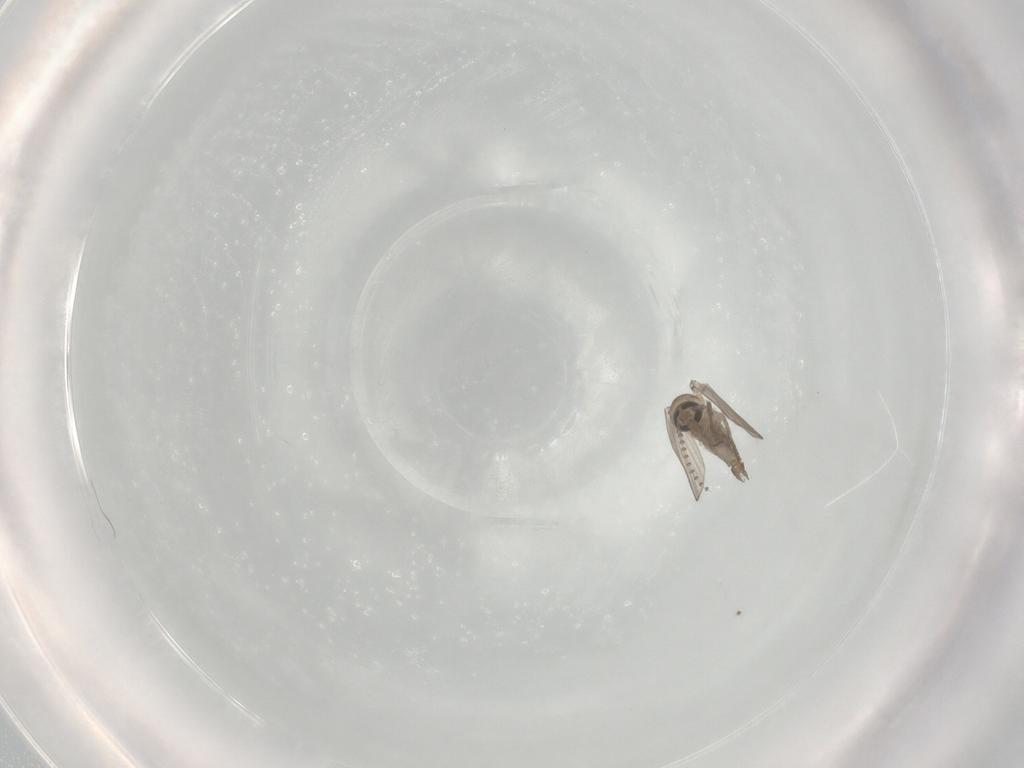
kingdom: Animalia
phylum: Arthropoda
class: Insecta
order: Diptera
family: Psychodidae
